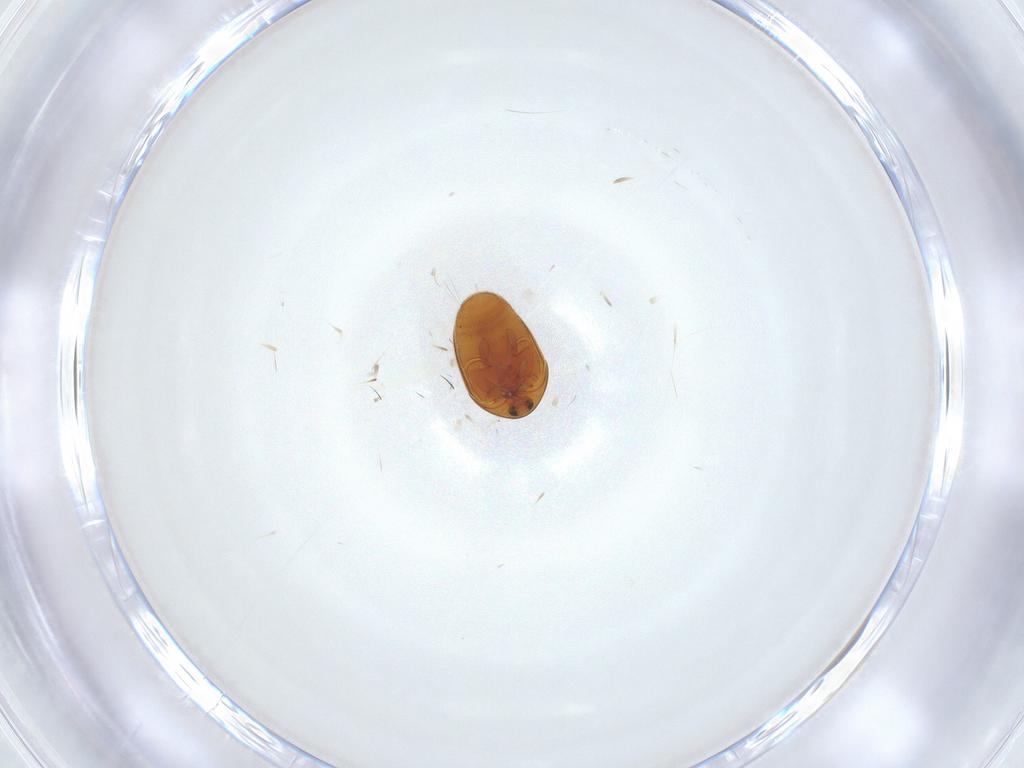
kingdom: Animalia
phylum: Arthropoda
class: Insecta
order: Coleoptera
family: Corylophidae
